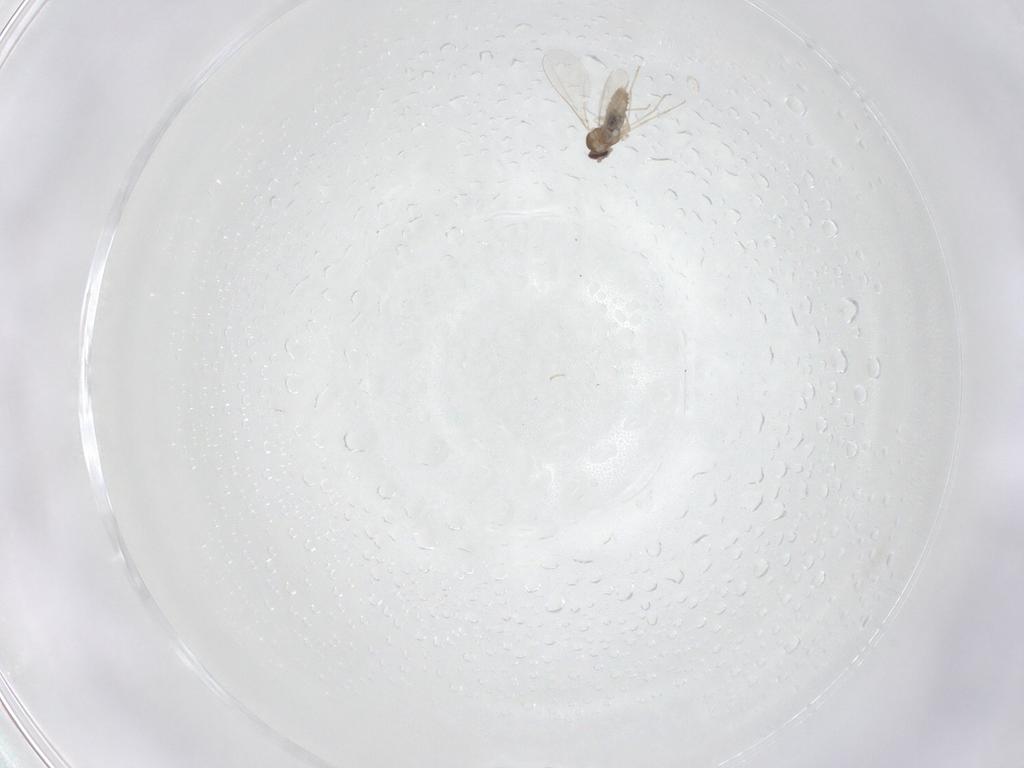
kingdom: Animalia
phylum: Arthropoda
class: Insecta
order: Diptera
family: Cecidomyiidae
